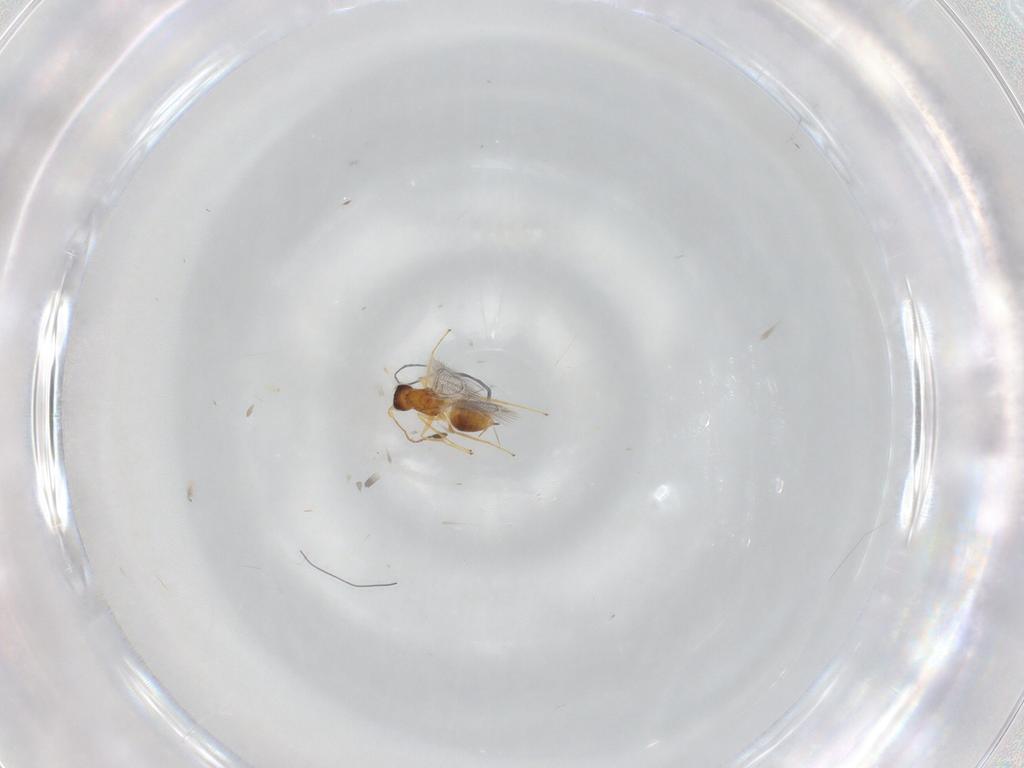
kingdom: Animalia
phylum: Arthropoda
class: Insecta
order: Hymenoptera
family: Mymaridae
